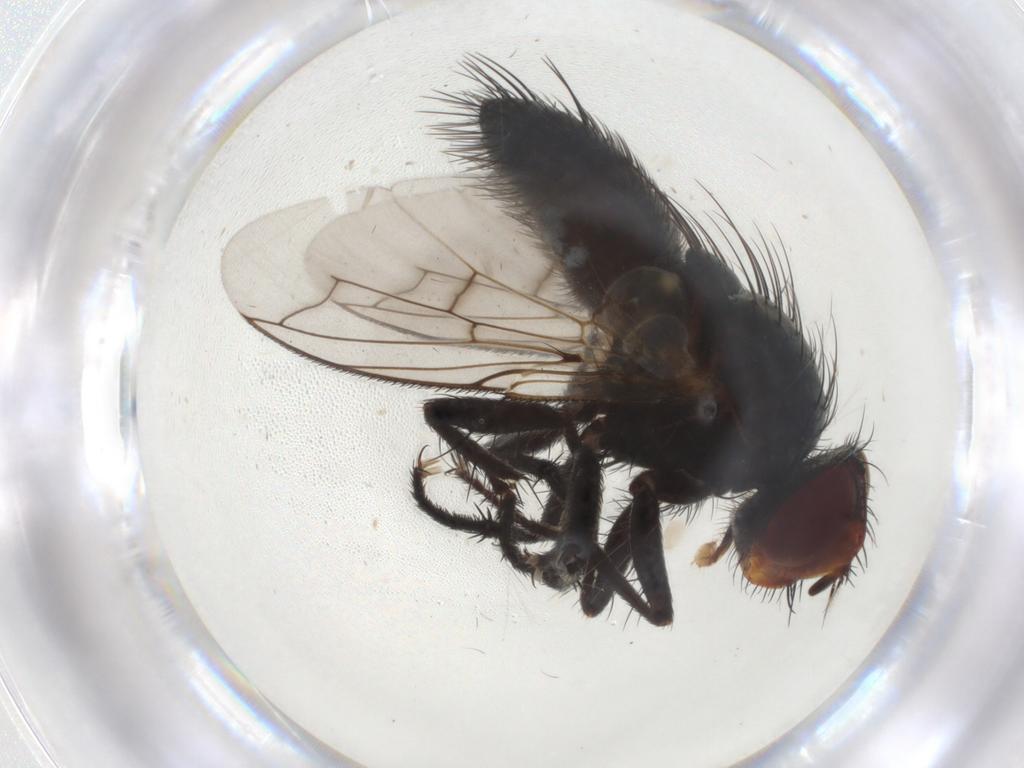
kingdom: Animalia
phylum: Arthropoda
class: Insecta
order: Diptera
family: Tachinidae
